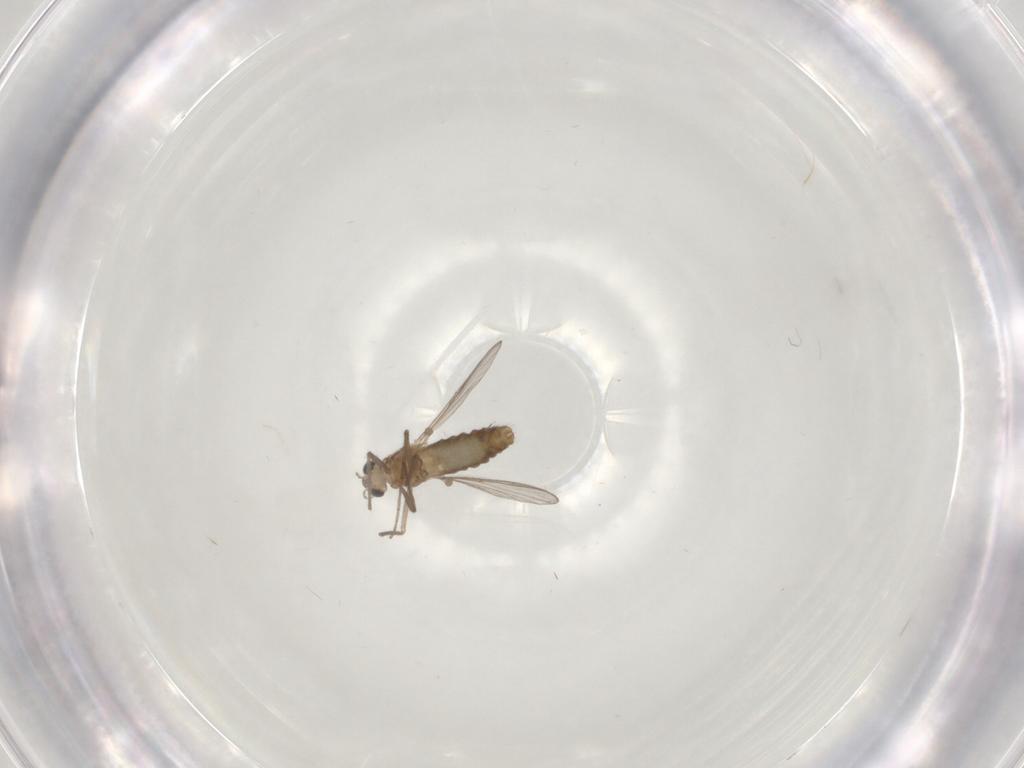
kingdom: Animalia
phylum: Arthropoda
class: Insecta
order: Diptera
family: Chironomidae
